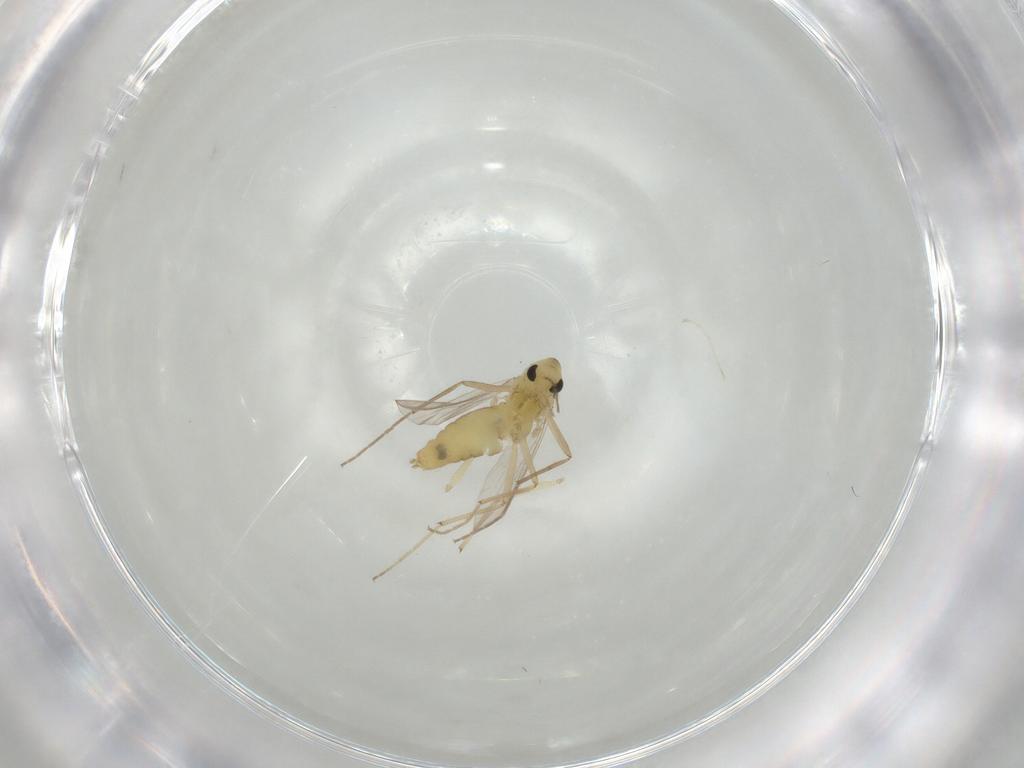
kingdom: Animalia
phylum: Arthropoda
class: Insecta
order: Diptera
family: Chironomidae
